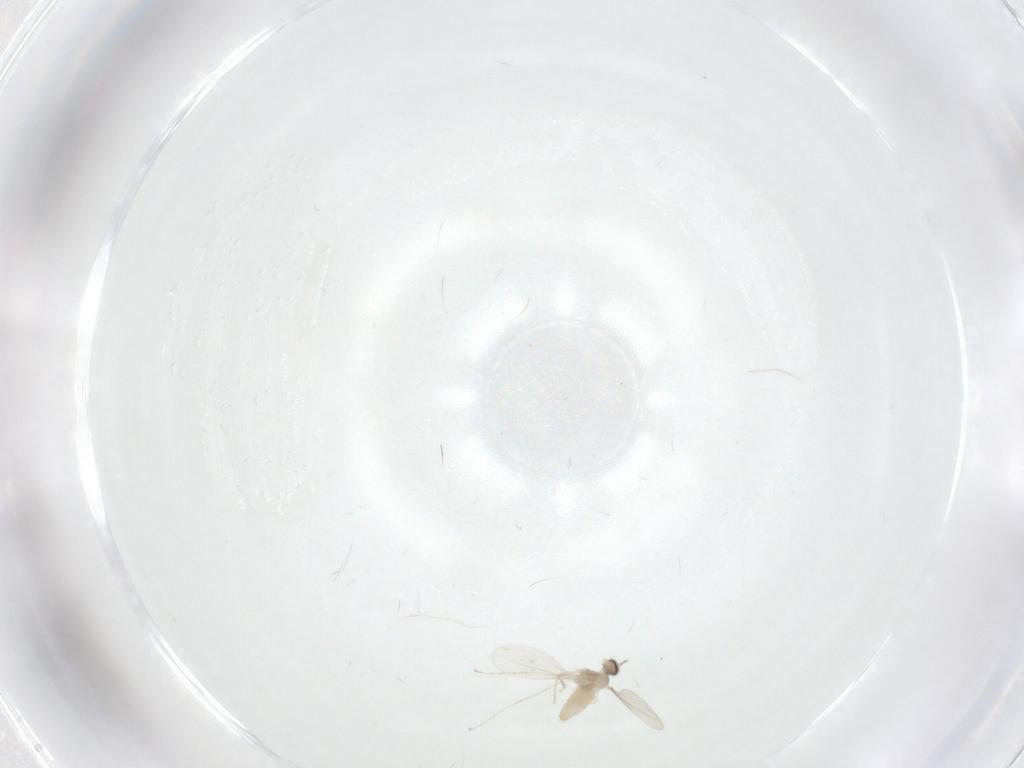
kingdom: Animalia
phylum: Arthropoda
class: Insecta
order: Diptera
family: Cecidomyiidae
